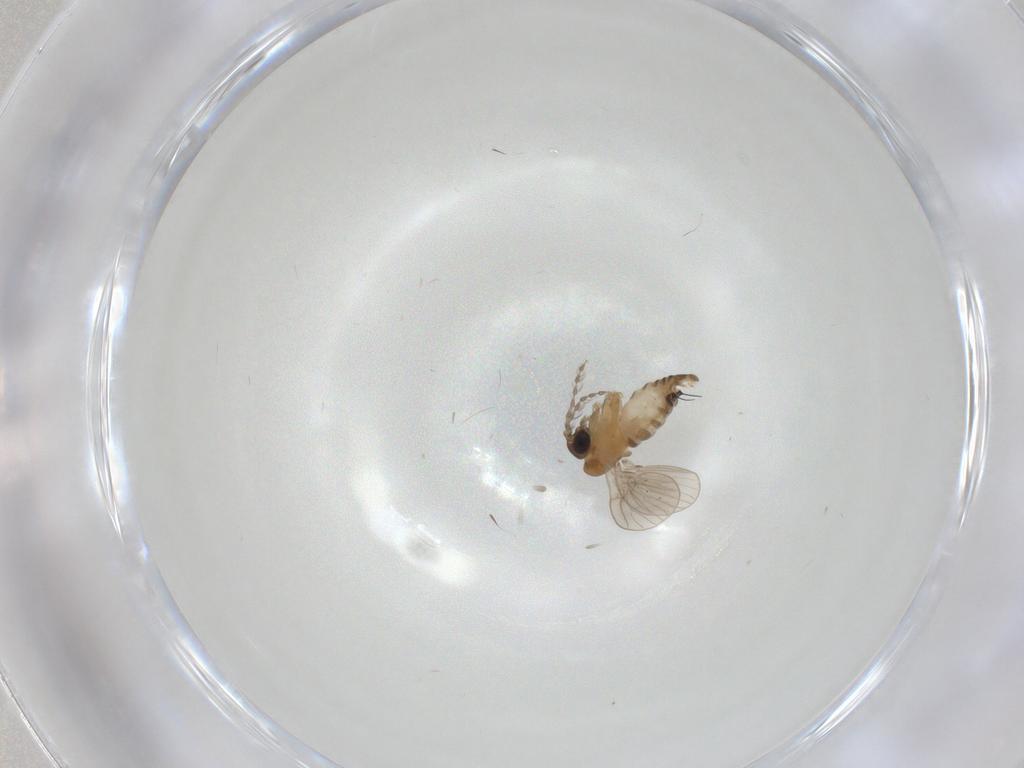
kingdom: Animalia
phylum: Arthropoda
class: Insecta
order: Diptera
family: Psychodidae
